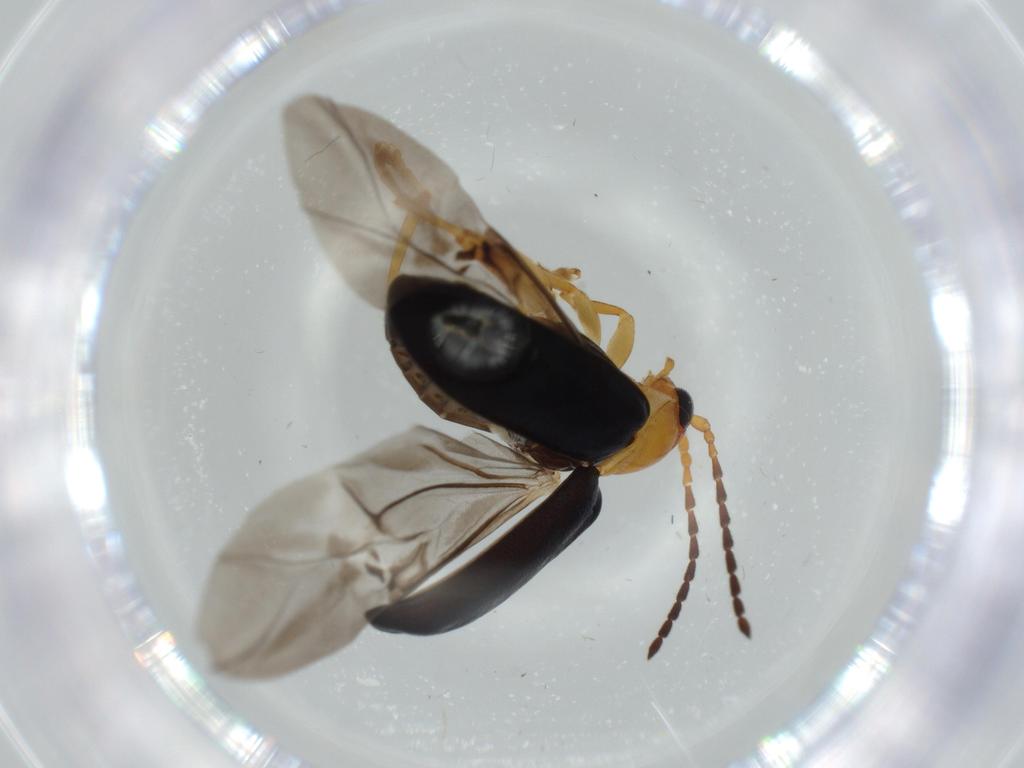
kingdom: Animalia
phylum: Arthropoda
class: Insecta
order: Coleoptera
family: Chrysomelidae
